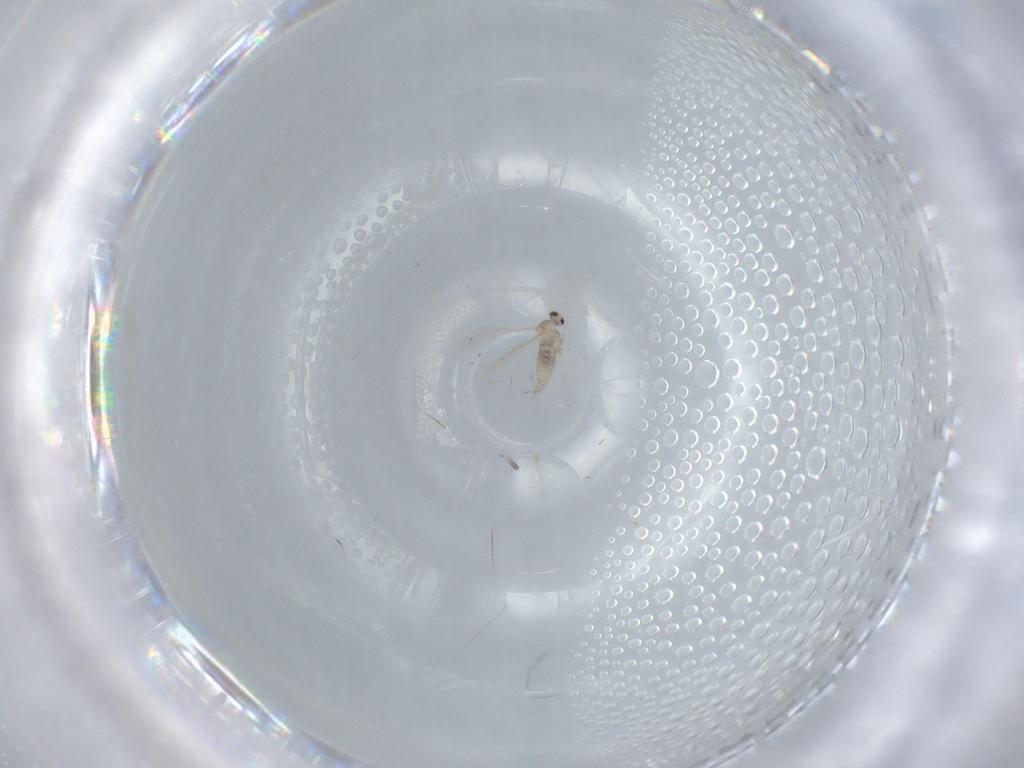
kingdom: Animalia
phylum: Arthropoda
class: Insecta
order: Diptera
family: Cecidomyiidae
